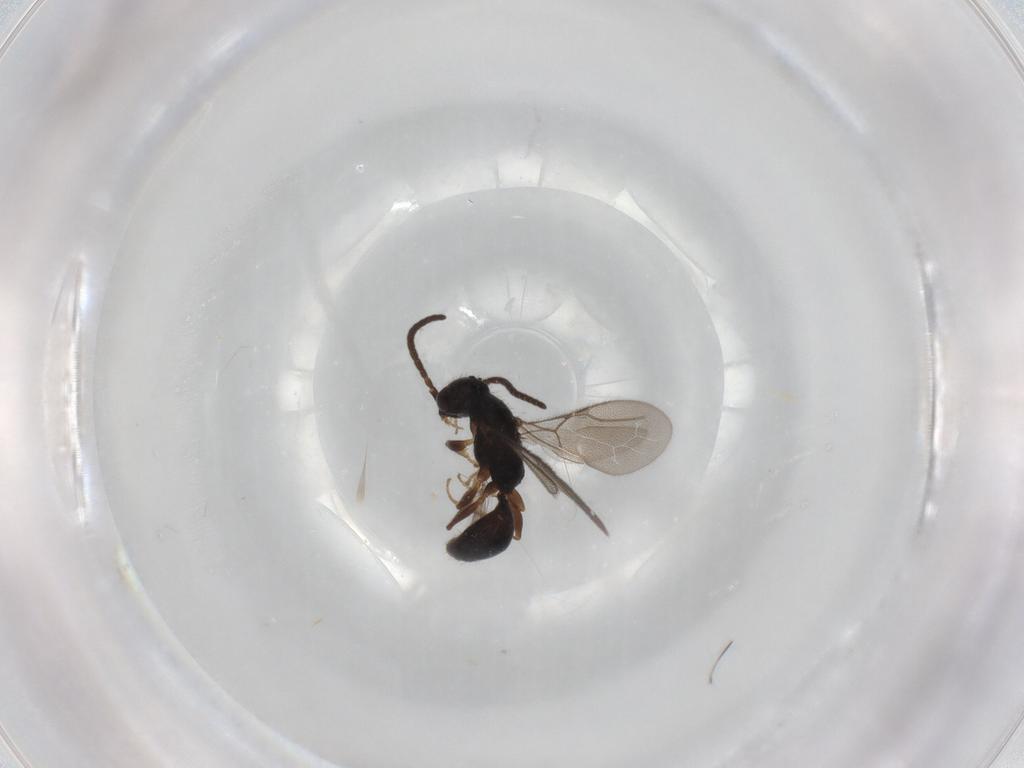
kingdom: Animalia
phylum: Arthropoda
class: Insecta
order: Hymenoptera
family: Bethylidae
